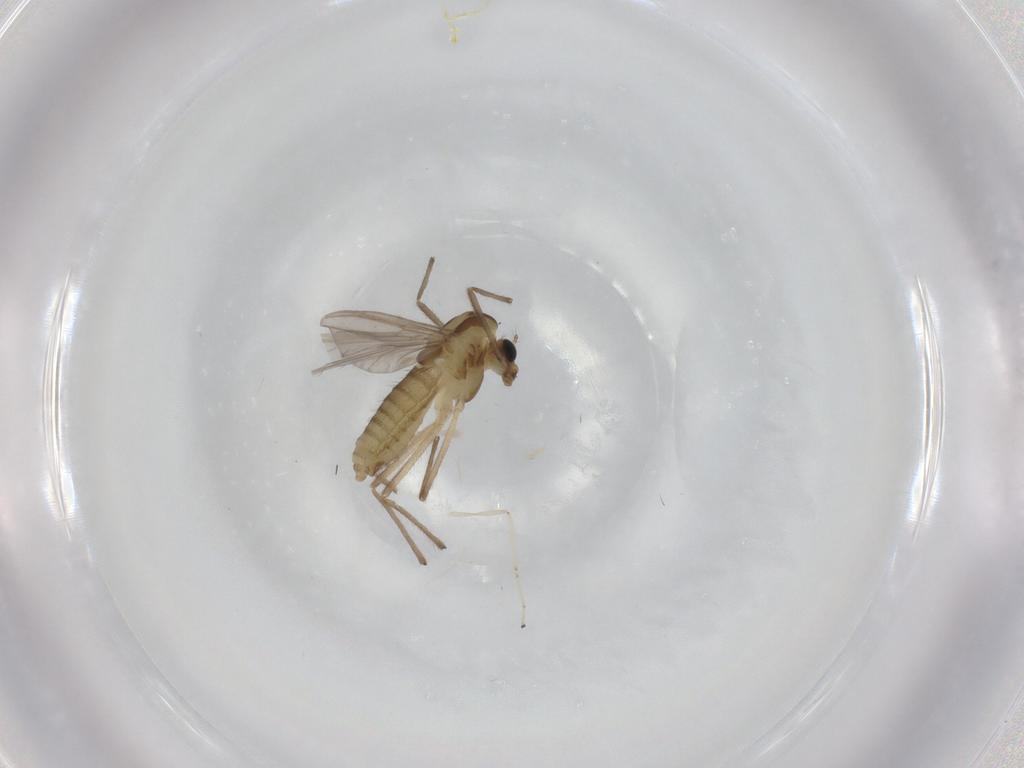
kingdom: Animalia
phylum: Arthropoda
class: Insecta
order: Diptera
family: Chironomidae
